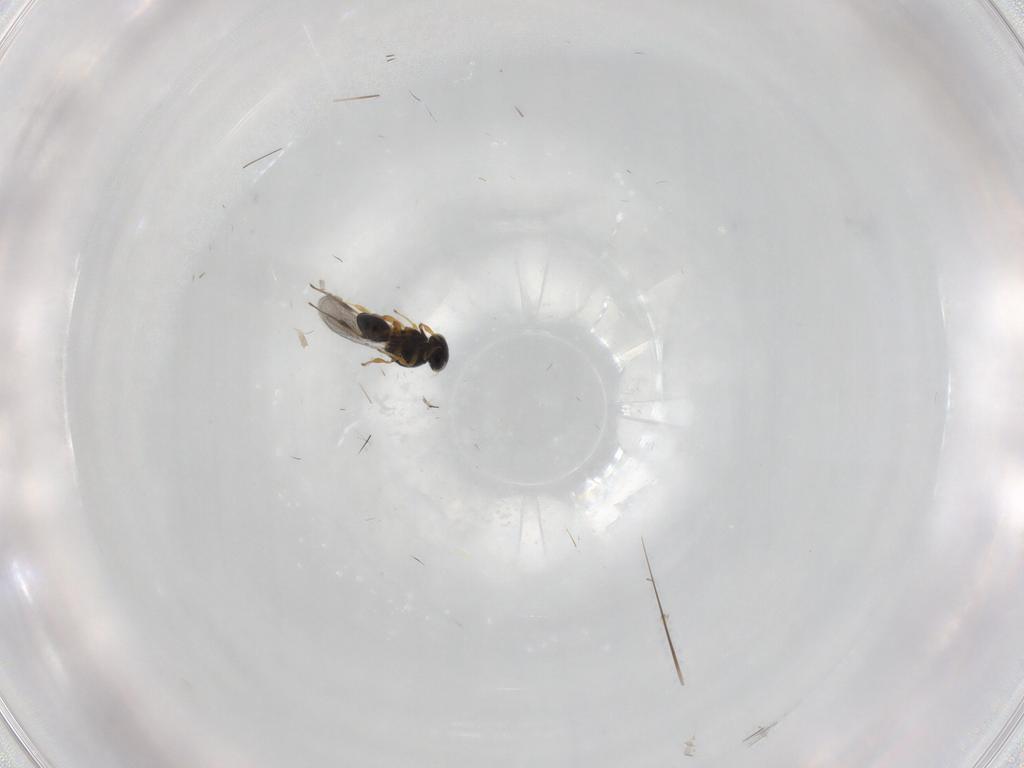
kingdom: Animalia
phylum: Arthropoda
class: Insecta
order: Hymenoptera
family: Platygastridae
